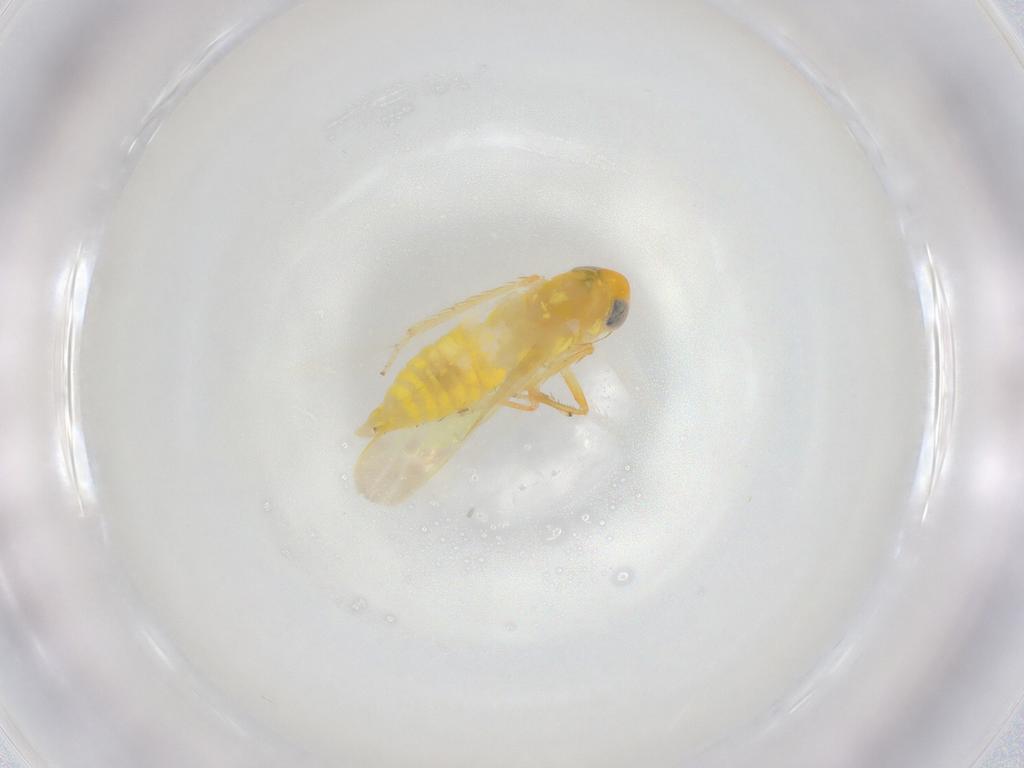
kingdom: Animalia
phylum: Arthropoda
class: Insecta
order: Hemiptera
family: Cicadellidae
